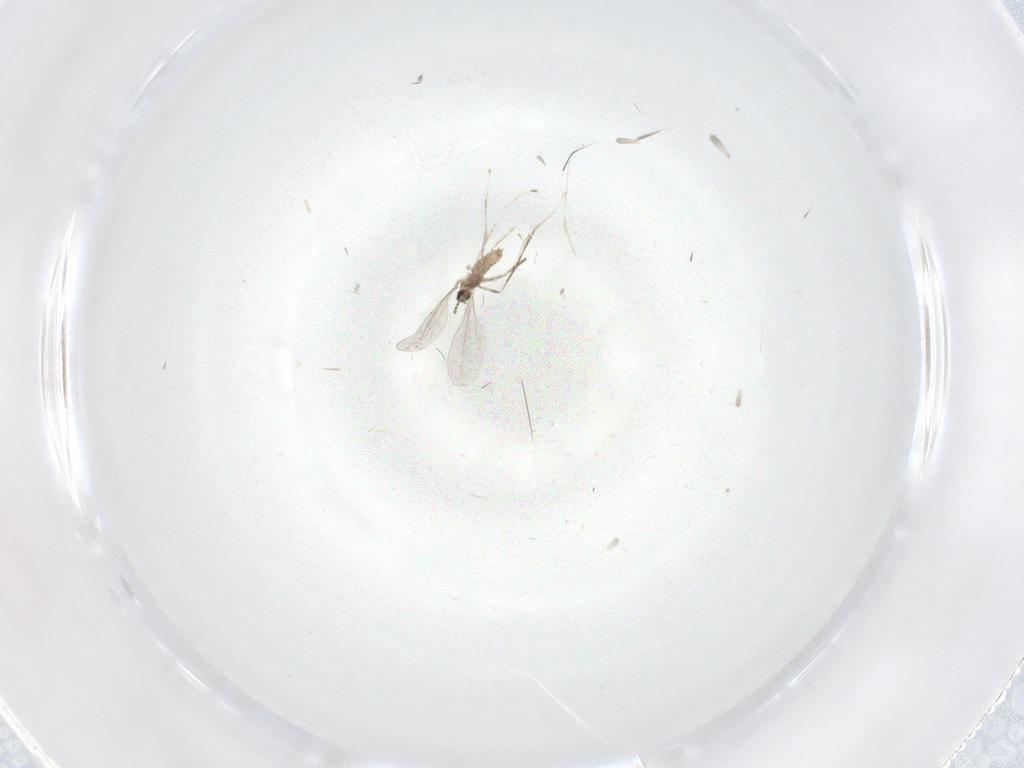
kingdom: Animalia
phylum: Arthropoda
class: Insecta
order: Diptera
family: Cecidomyiidae
